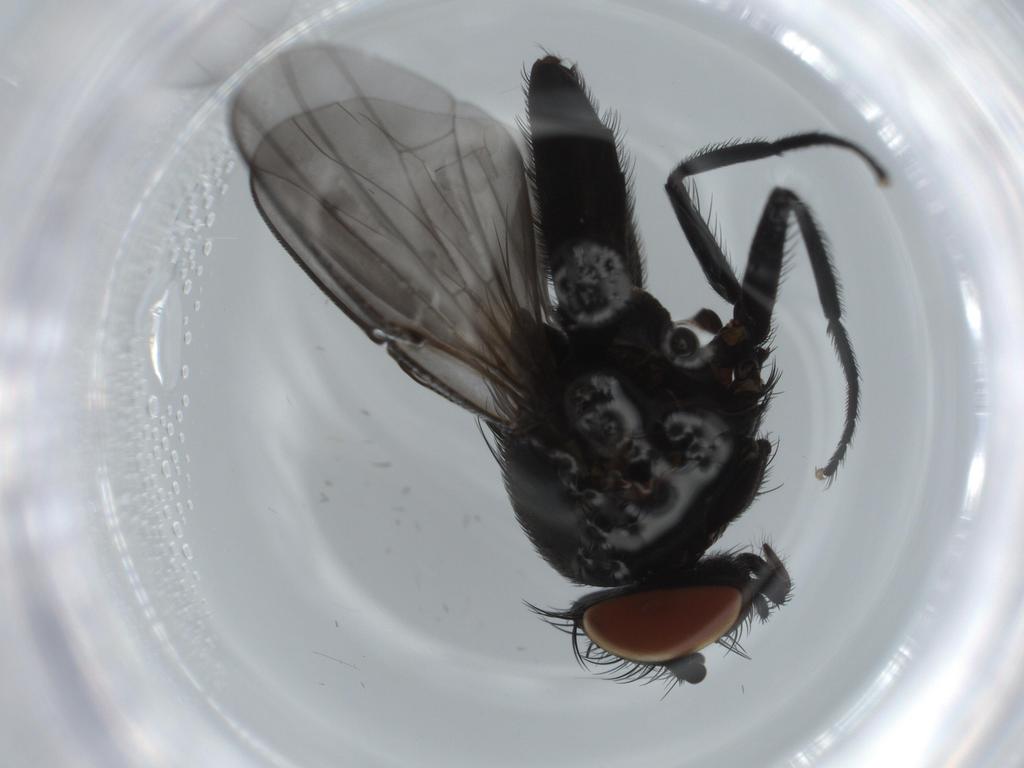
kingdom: Animalia
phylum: Arthropoda
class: Insecta
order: Diptera
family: Milichiidae
